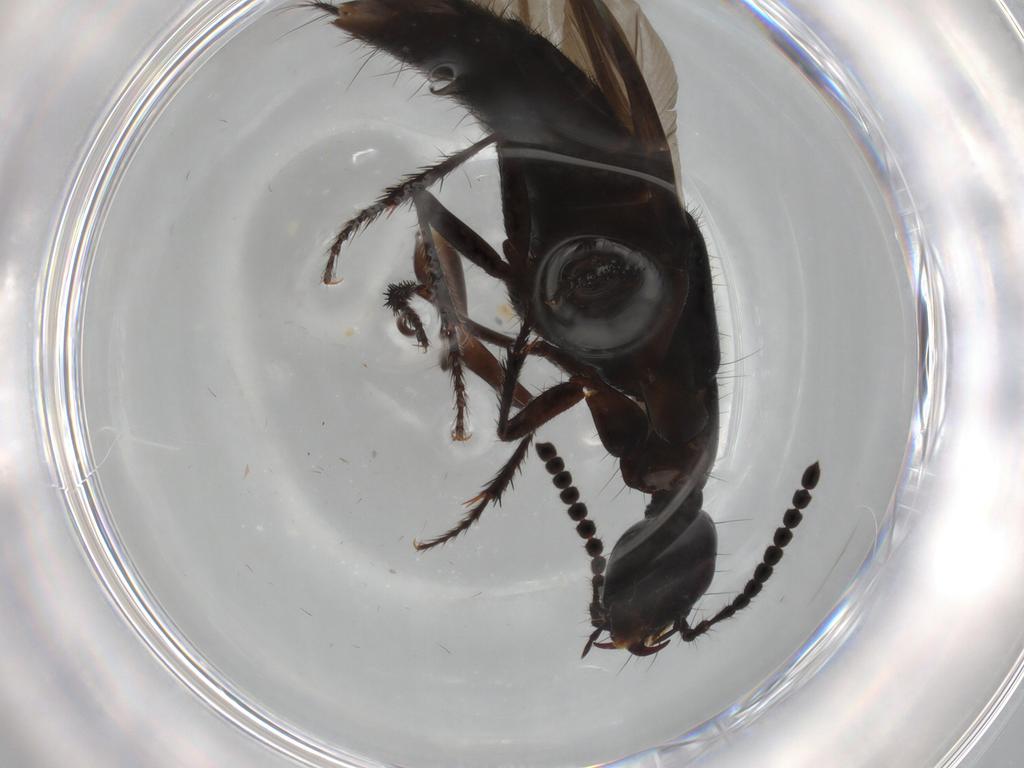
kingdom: Animalia
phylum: Arthropoda
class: Insecta
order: Coleoptera
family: Staphylinidae
